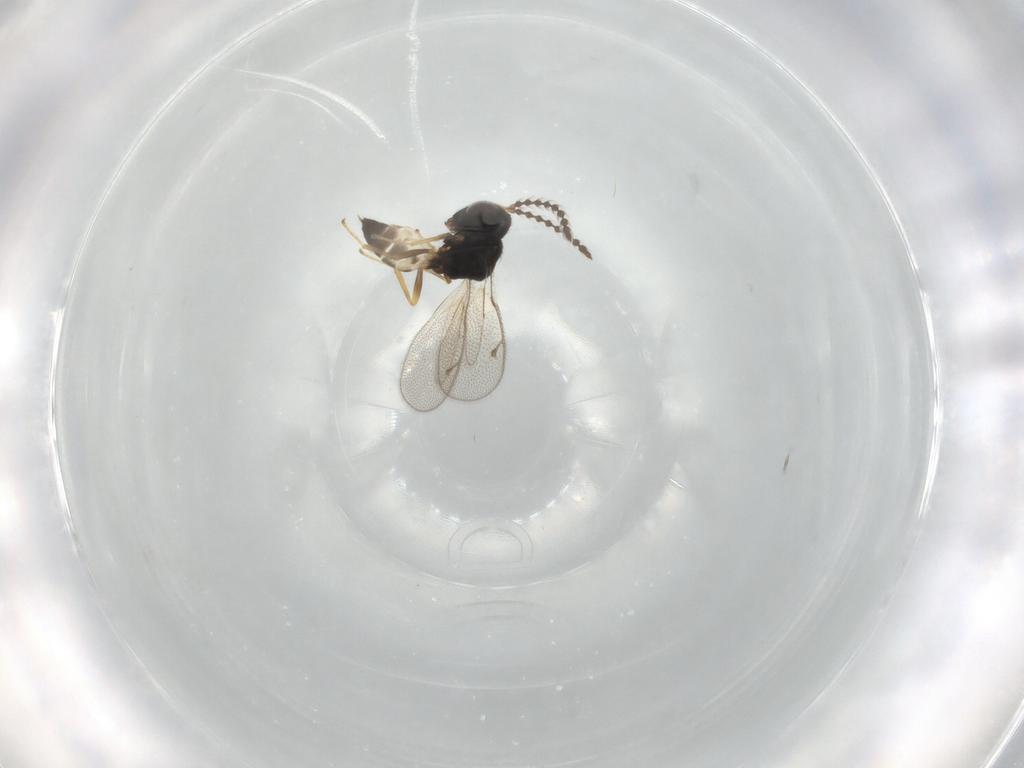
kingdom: Animalia
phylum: Arthropoda
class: Insecta
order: Hymenoptera
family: Pteromalidae
